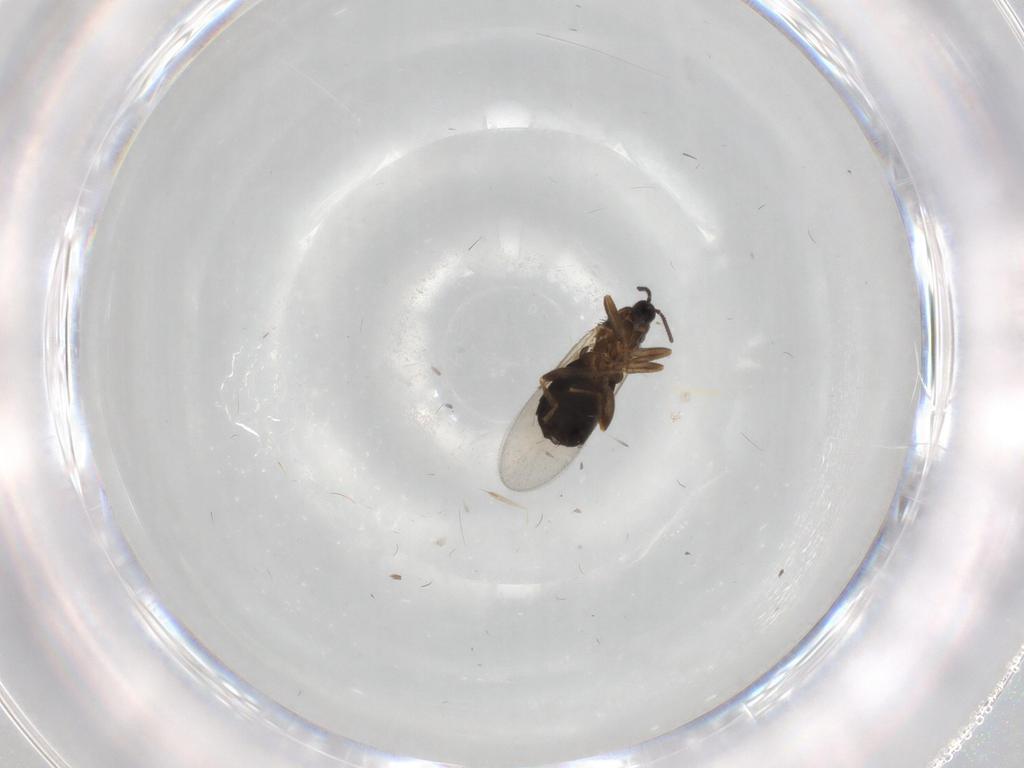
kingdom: Animalia
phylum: Arthropoda
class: Insecta
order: Diptera
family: Scatopsidae
